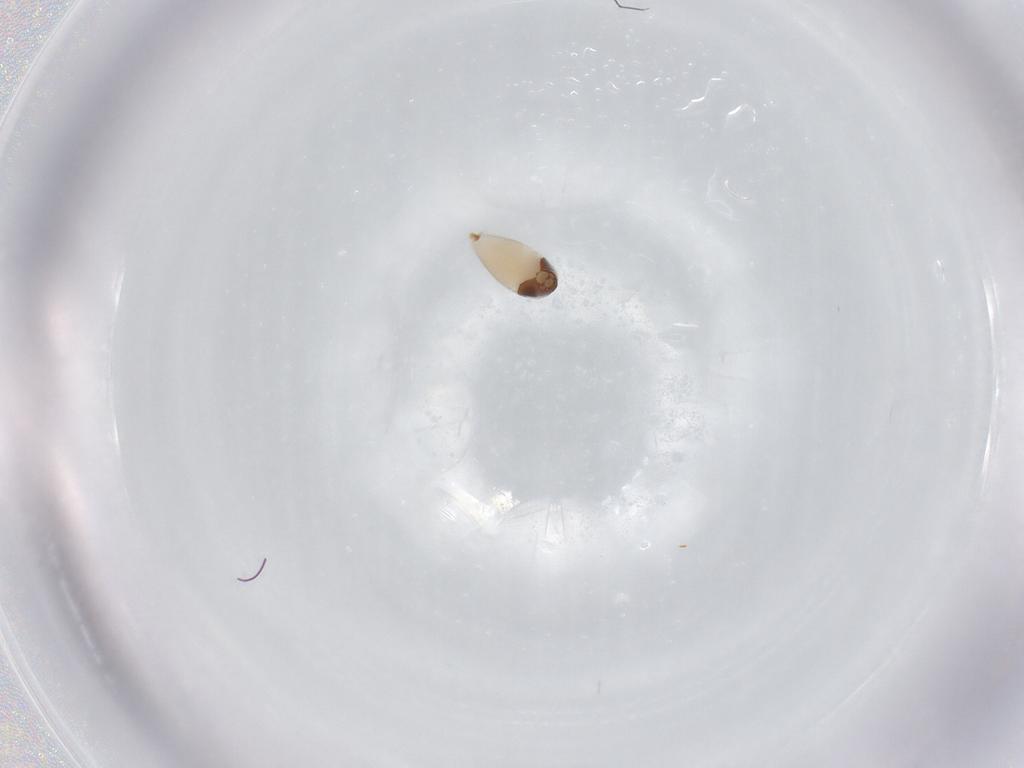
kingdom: Animalia
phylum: Arthropoda
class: Insecta
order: Hymenoptera
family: Ichneumonidae
